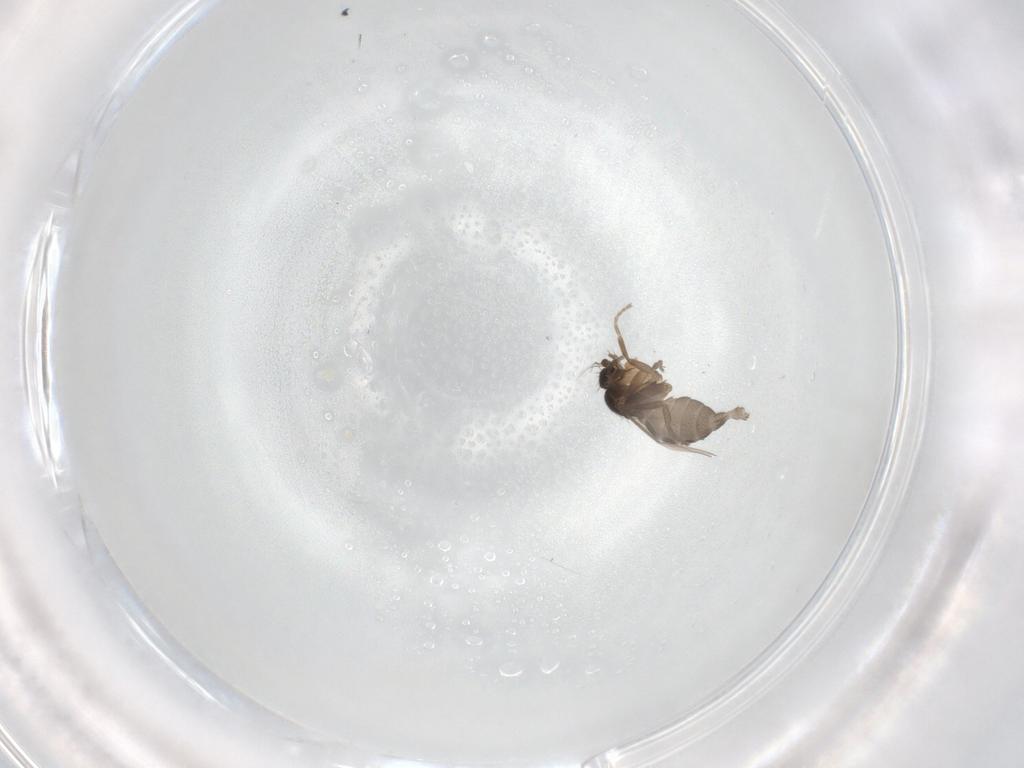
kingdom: Animalia
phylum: Arthropoda
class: Insecta
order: Diptera
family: Phoridae
